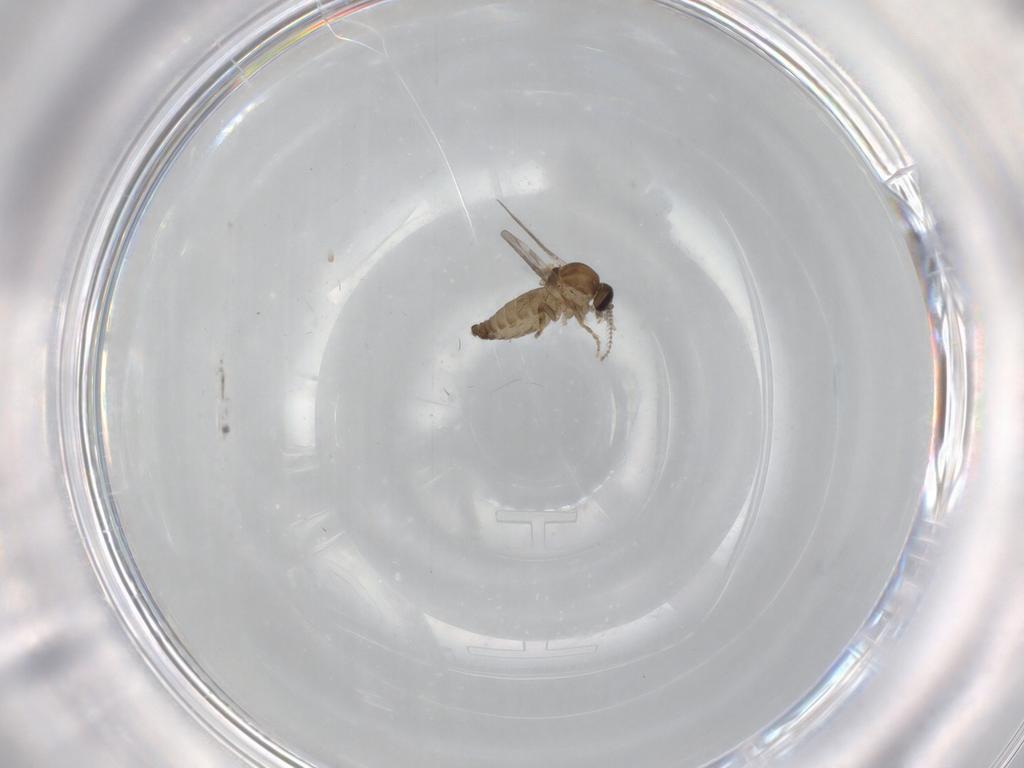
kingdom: Animalia
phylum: Arthropoda
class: Insecta
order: Diptera
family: Ceratopogonidae
